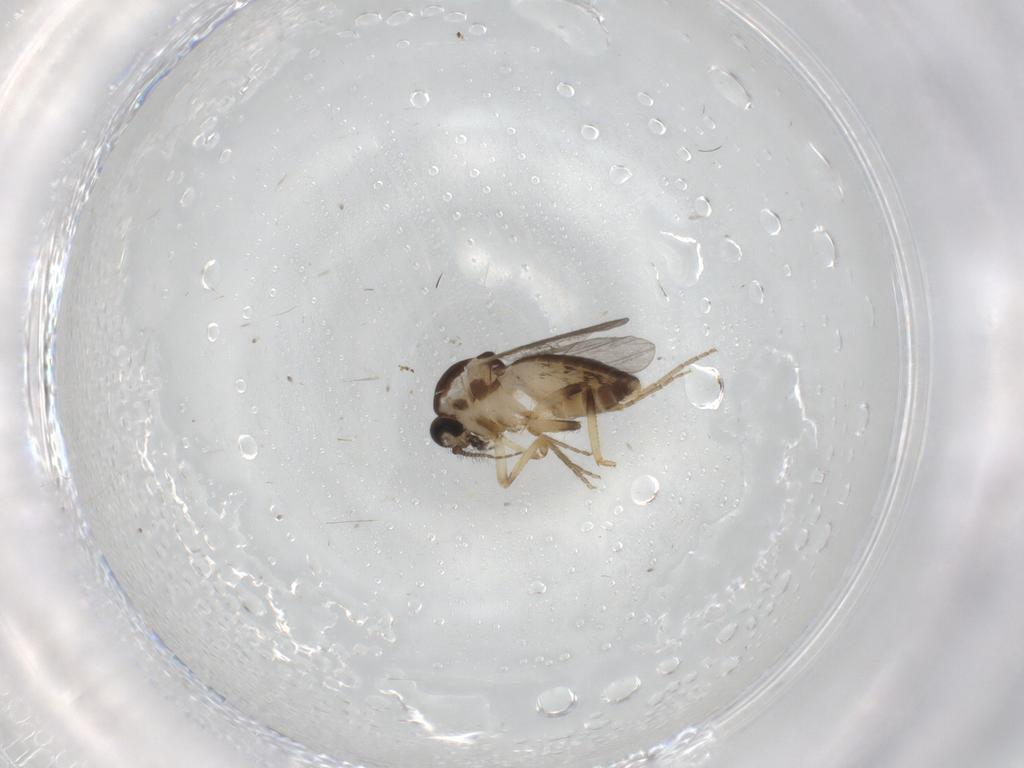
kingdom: Animalia
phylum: Arthropoda
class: Insecta
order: Diptera
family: Ceratopogonidae
